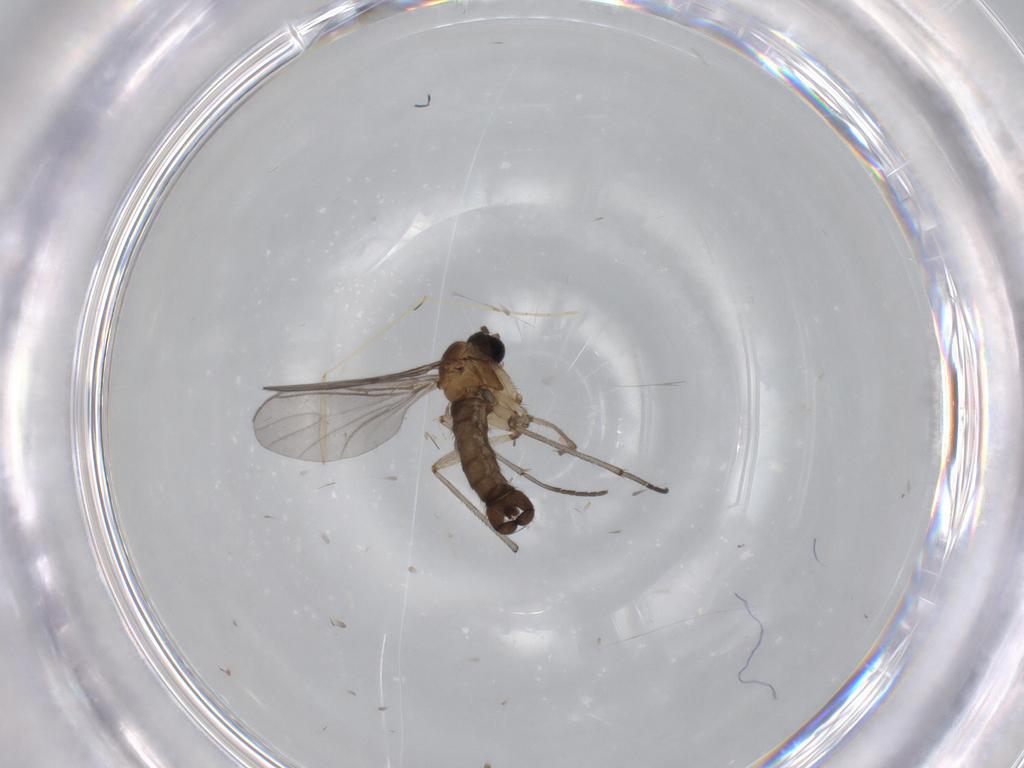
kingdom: Animalia
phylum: Arthropoda
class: Insecta
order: Diptera
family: Sciaridae
